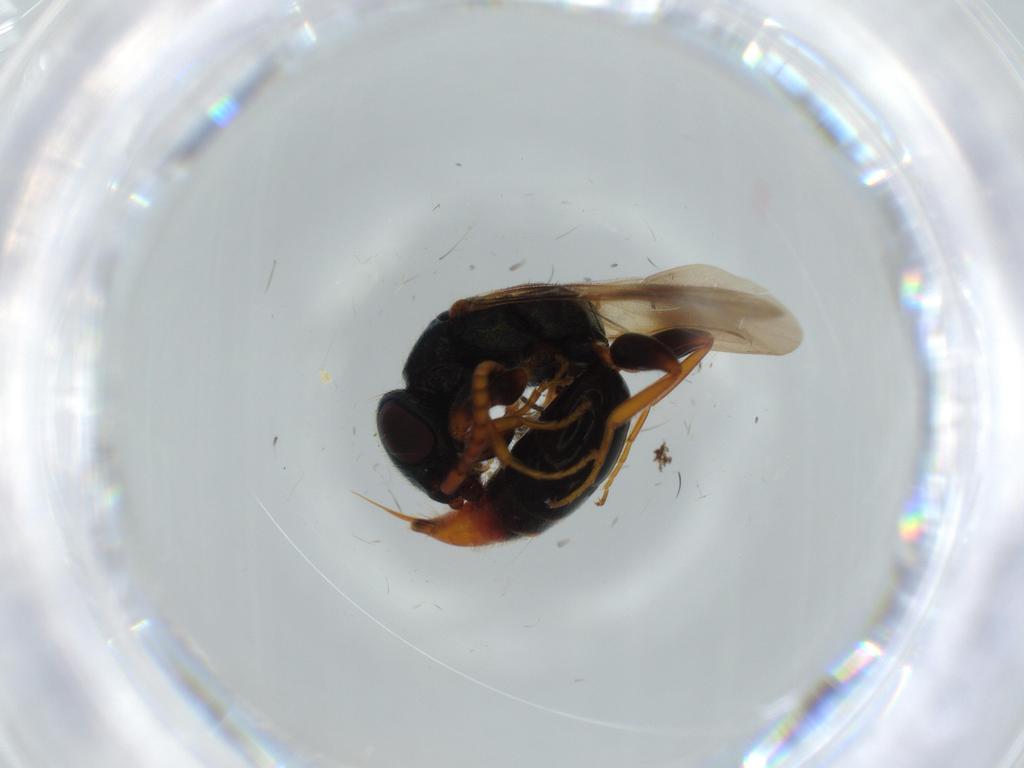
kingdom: Animalia
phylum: Arthropoda
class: Insecta
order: Hymenoptera
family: Bethylidae
